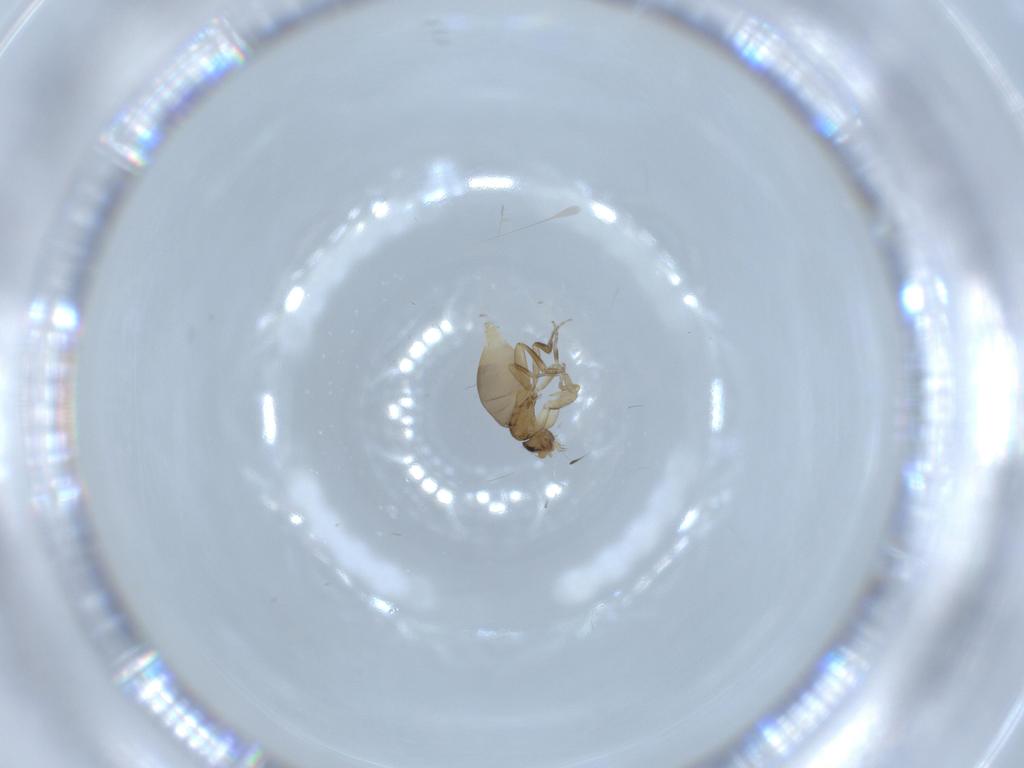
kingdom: Animalia
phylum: Arthropoda
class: Insecta
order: Diptera
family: Phoridae
